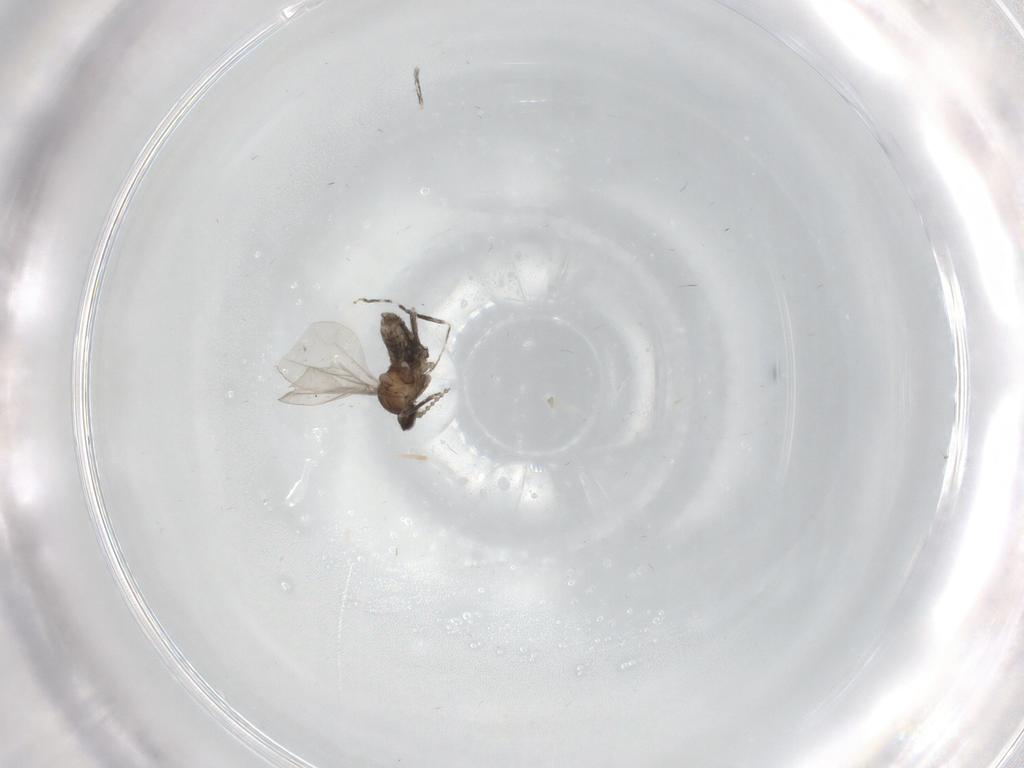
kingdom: Animalia
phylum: Arthropoda
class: Insecta
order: Diptera
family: Cecidomyiidae
